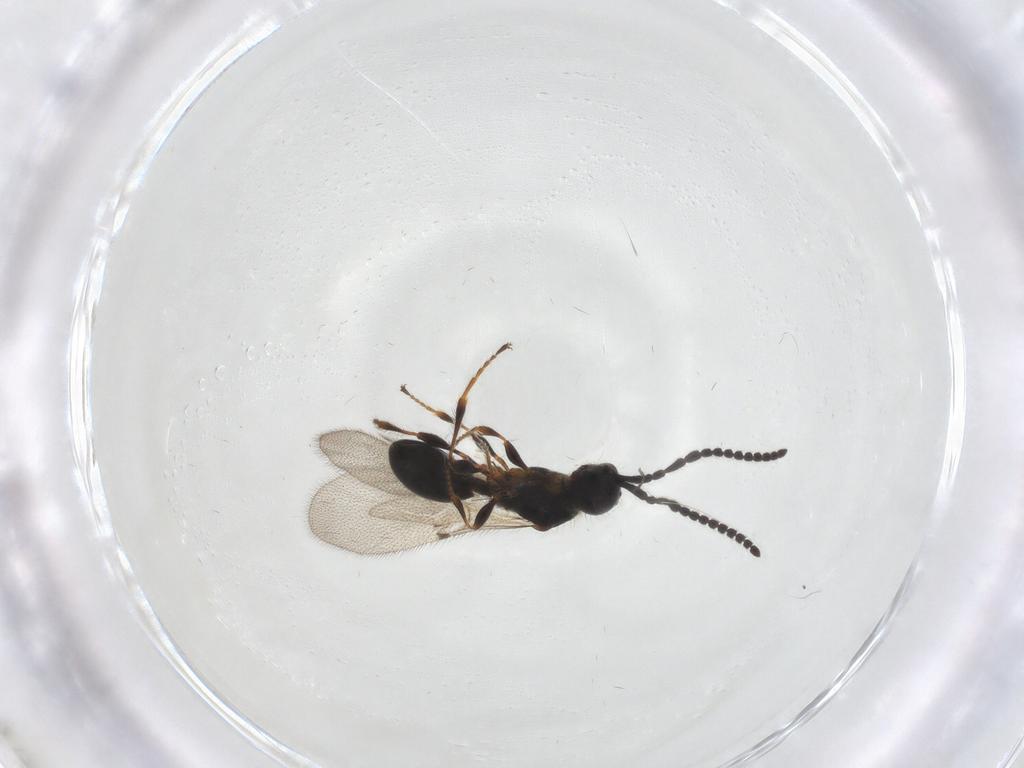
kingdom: Animalia
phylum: Arthropoda
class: Insecta
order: Hymenoptera
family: Diapriidae
